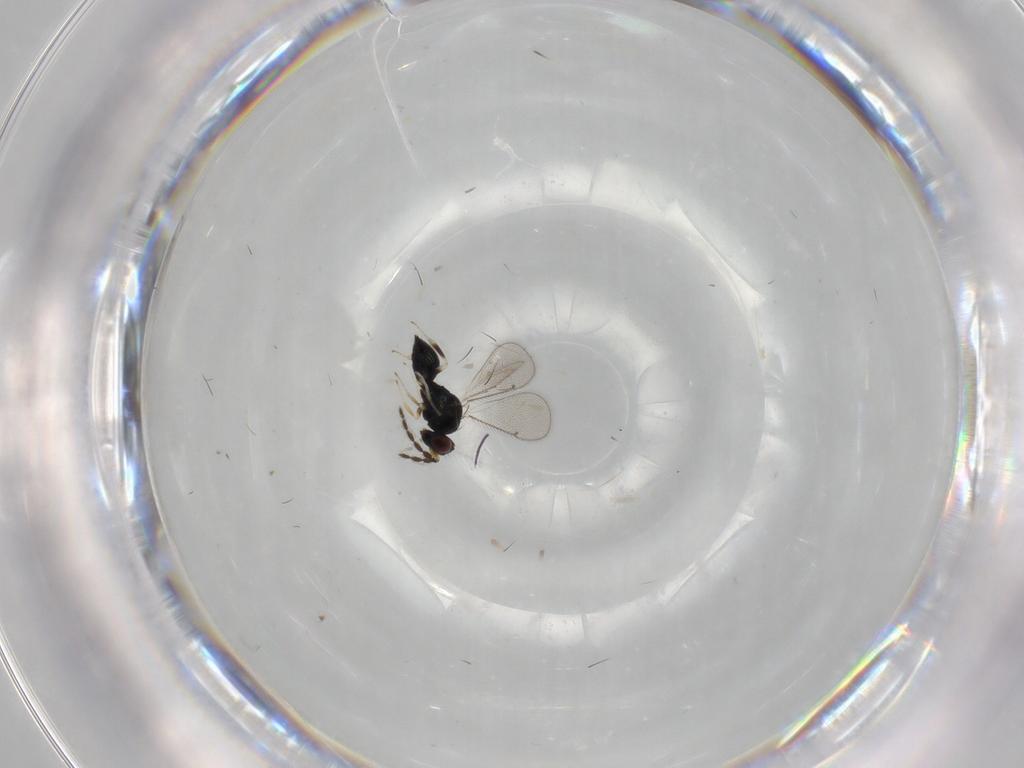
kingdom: Animalia
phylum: Arthropoda
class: Insecta
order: Hymenoptera
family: Eulophidae
